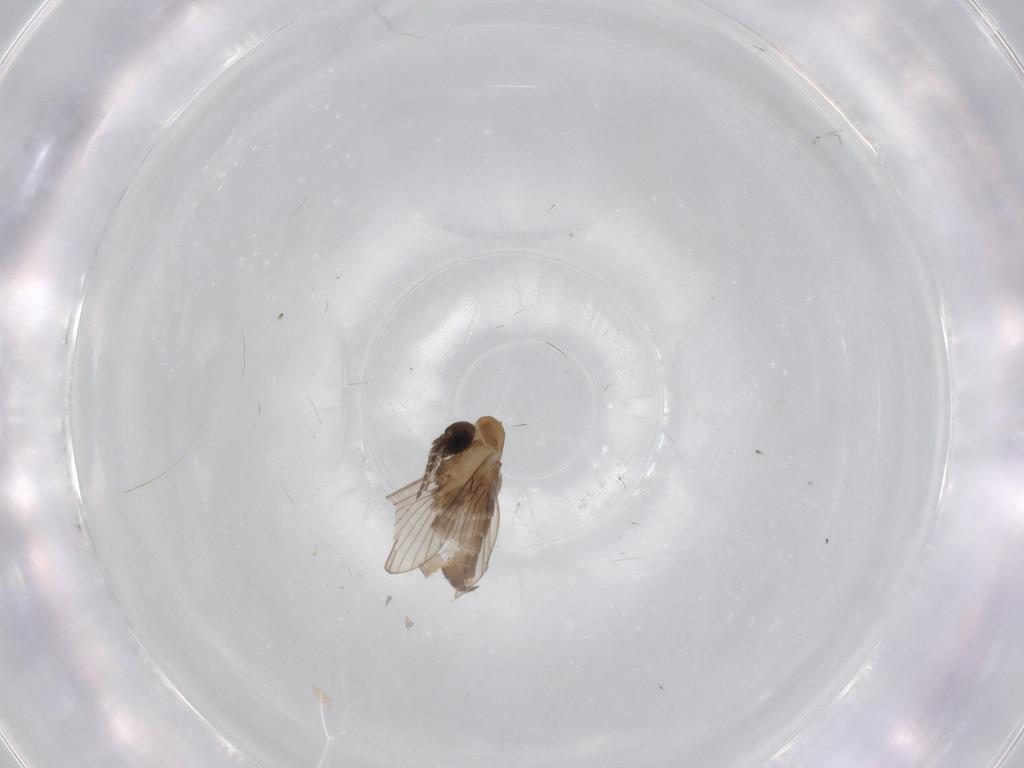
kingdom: Animalia
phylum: Arthropoda
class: Insecta
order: Diptera
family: Psychodidae
